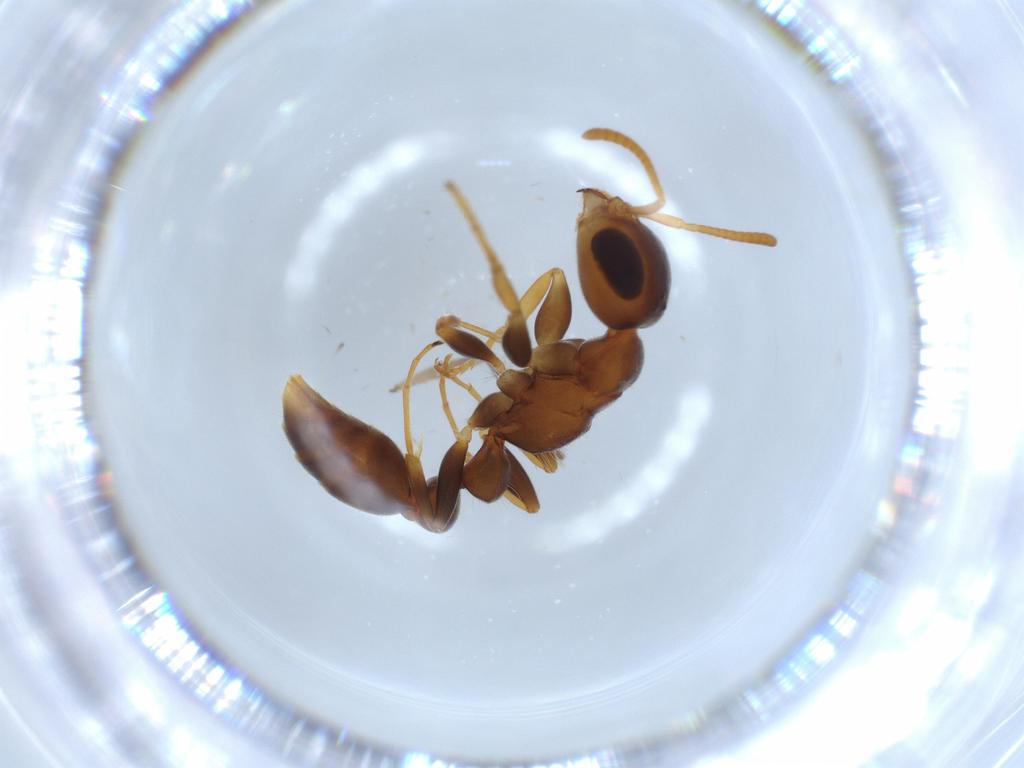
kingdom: Animalia
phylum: Arthropoda
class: Insecta
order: Hymenoptera
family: Formicidae
